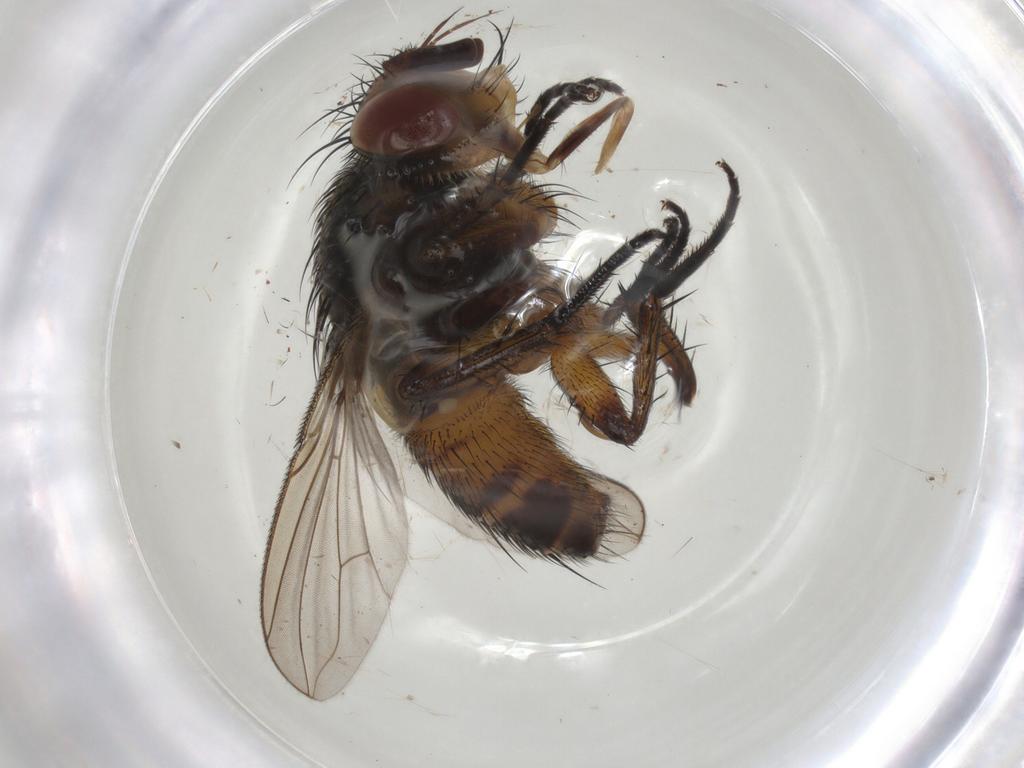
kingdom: Animalia
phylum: Arthropoda
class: Insecta
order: Diptera
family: Tachinidae
